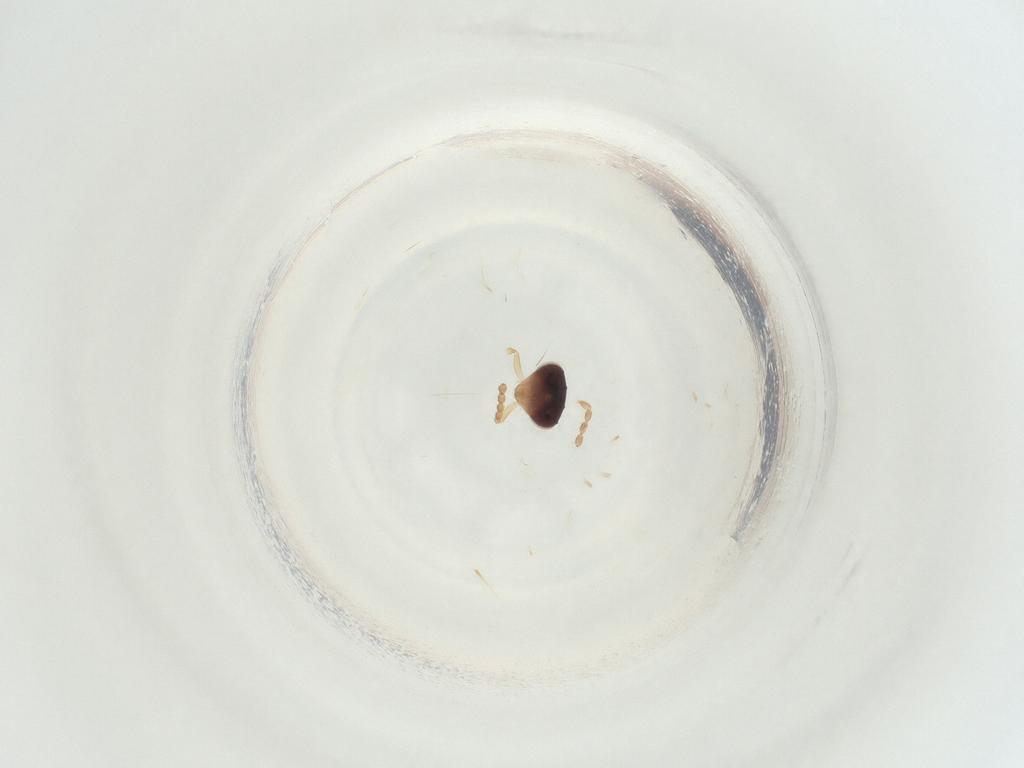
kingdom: Animalia
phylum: Arthropoda
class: Insecta
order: Hymenoptera
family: Eulophidae
